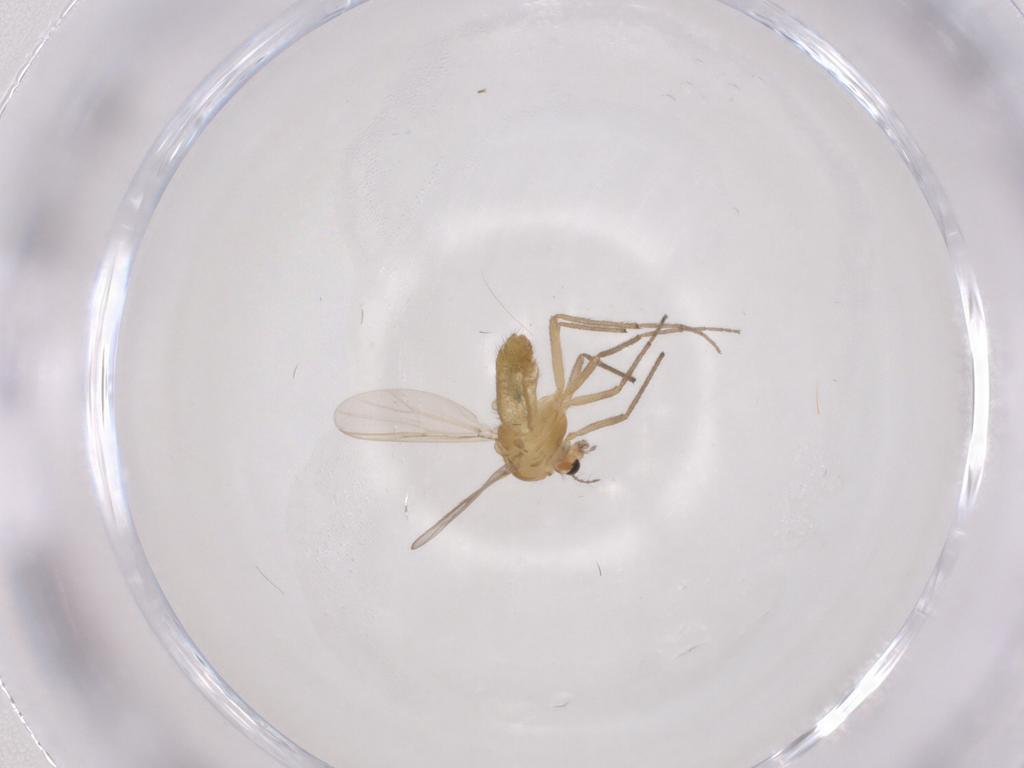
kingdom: Animalia
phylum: Arthropoda
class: Insecta
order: Diptera
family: Chironomidae
